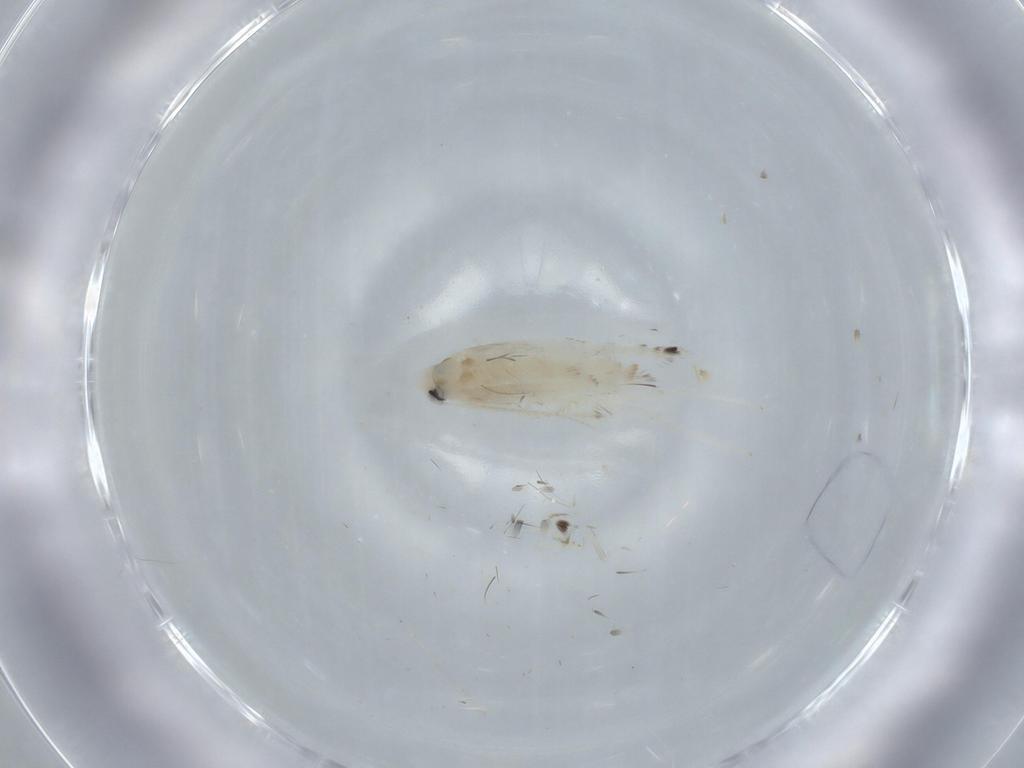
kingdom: Animalia
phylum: Arthropoda
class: Insecta
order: Lepidoptera
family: Gracillariidae
